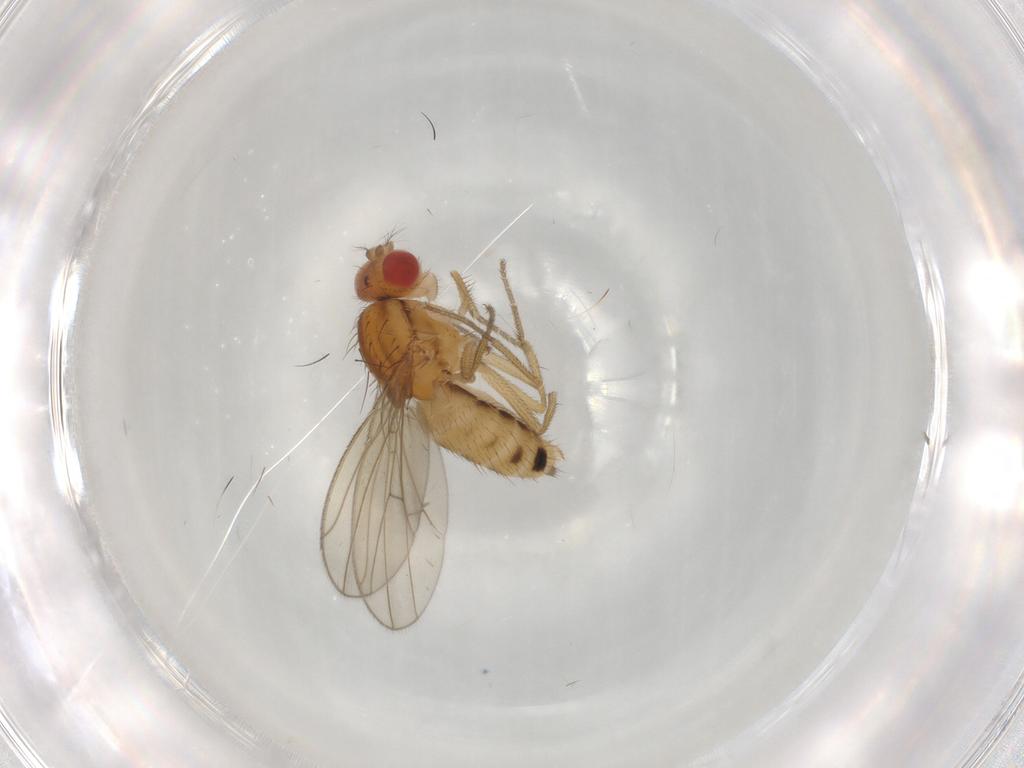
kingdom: Animalia
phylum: Arthropoda
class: Insecta
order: Diptera
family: Drosophilidae
